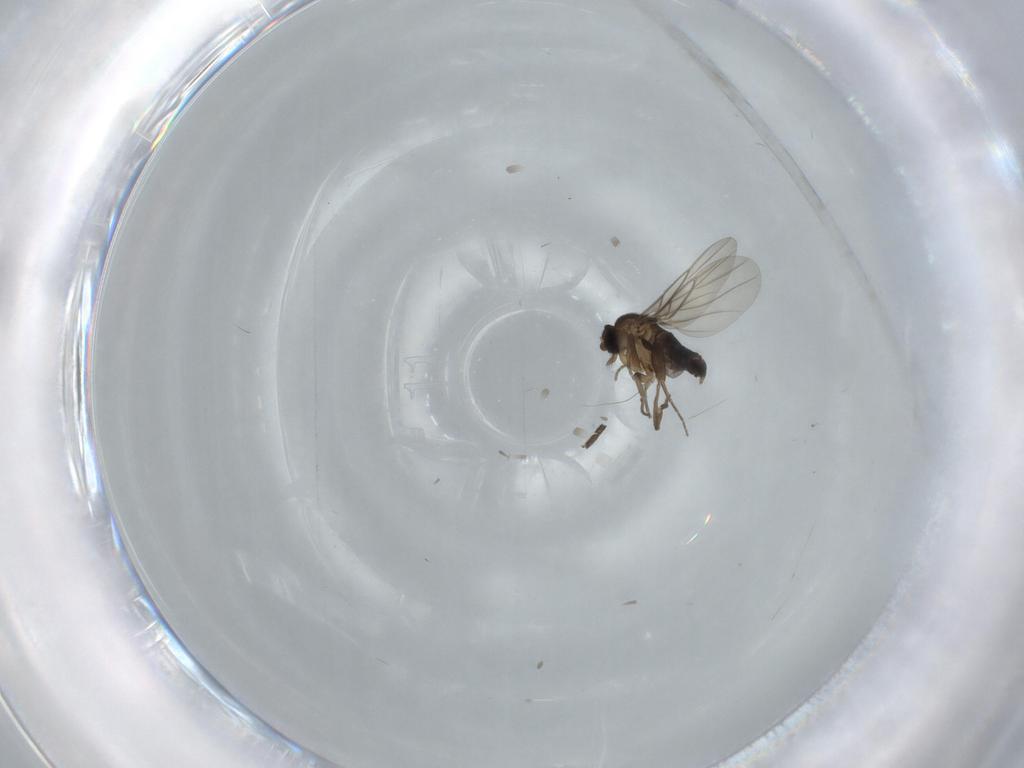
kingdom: Animalia
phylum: Arthropoda
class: Insecta
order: Diptera
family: Phoridae
